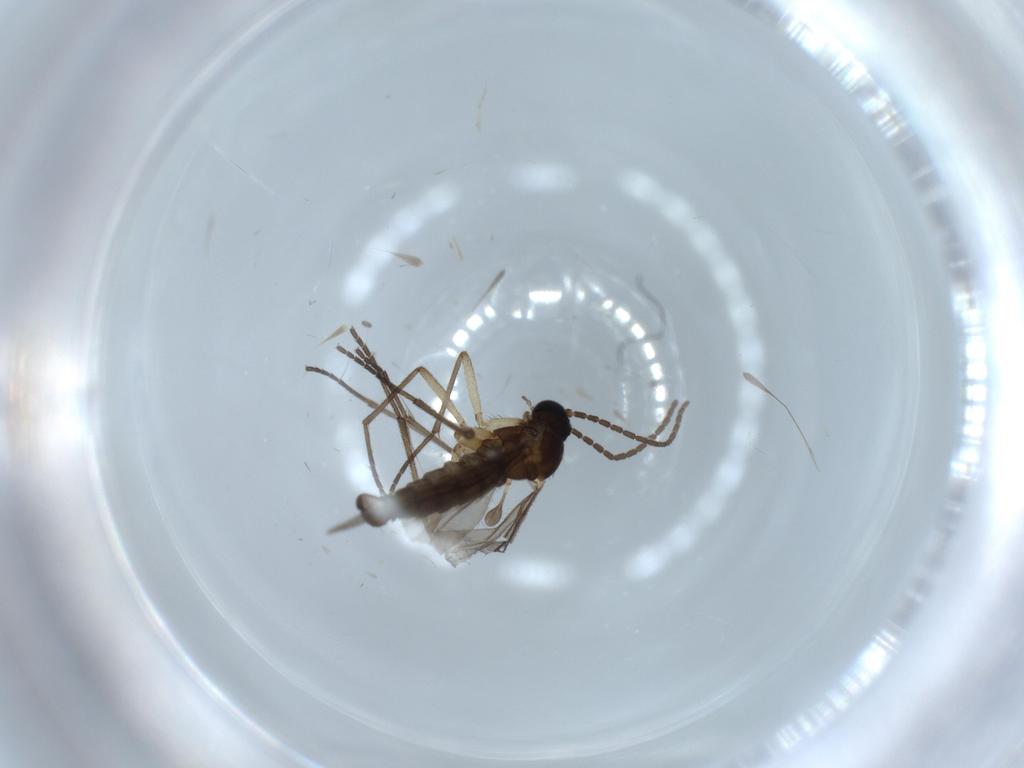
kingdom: Animalia
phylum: Arthropoda
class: Insecta
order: Diptera
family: Sciaridae
